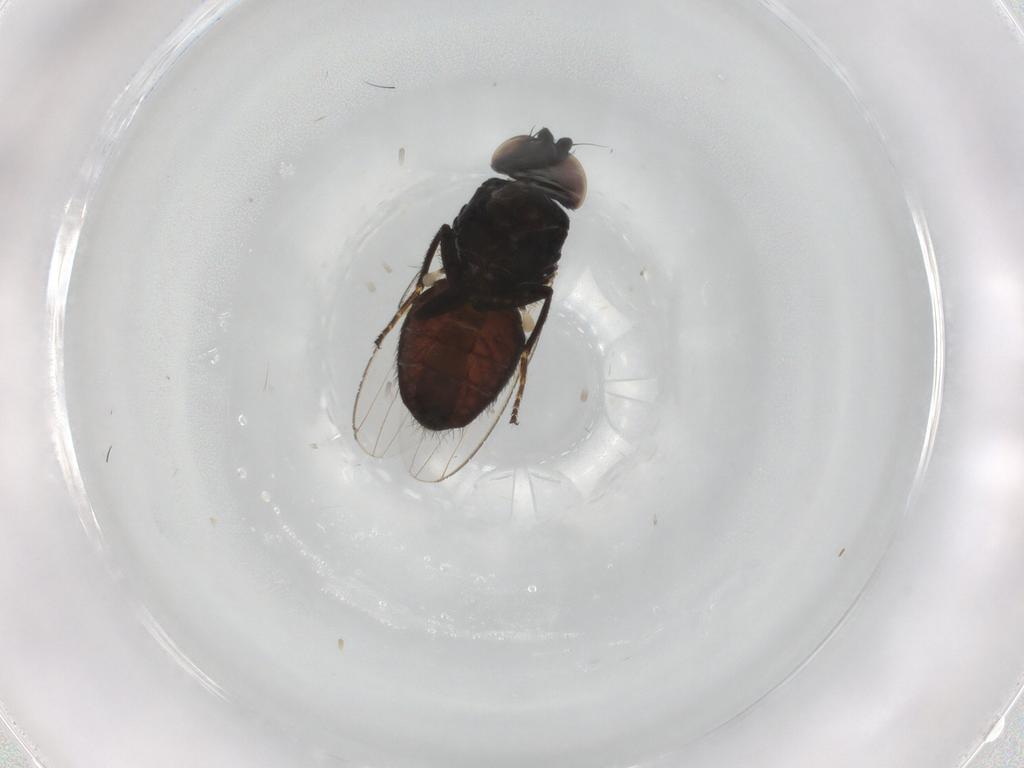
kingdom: Animalia
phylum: Arthropoda
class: Insecta
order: Diptera
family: Milichiidae
